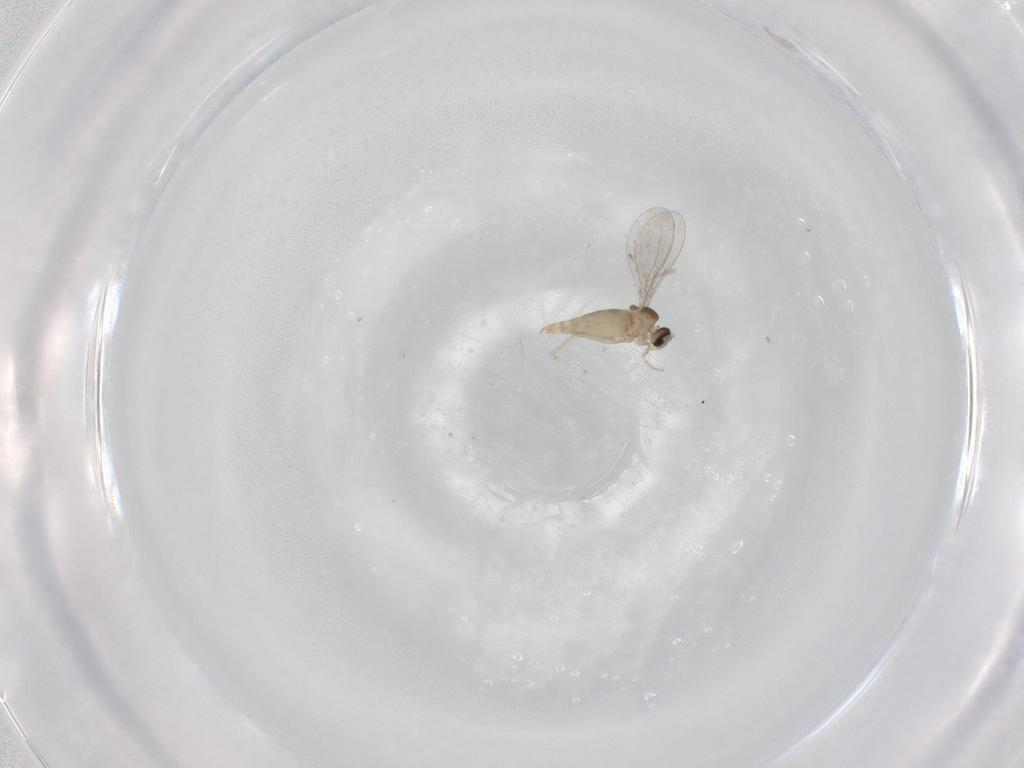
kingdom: Animalia
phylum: Arthropoda
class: Insecta
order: Diptera
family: Cecidomyiidae
